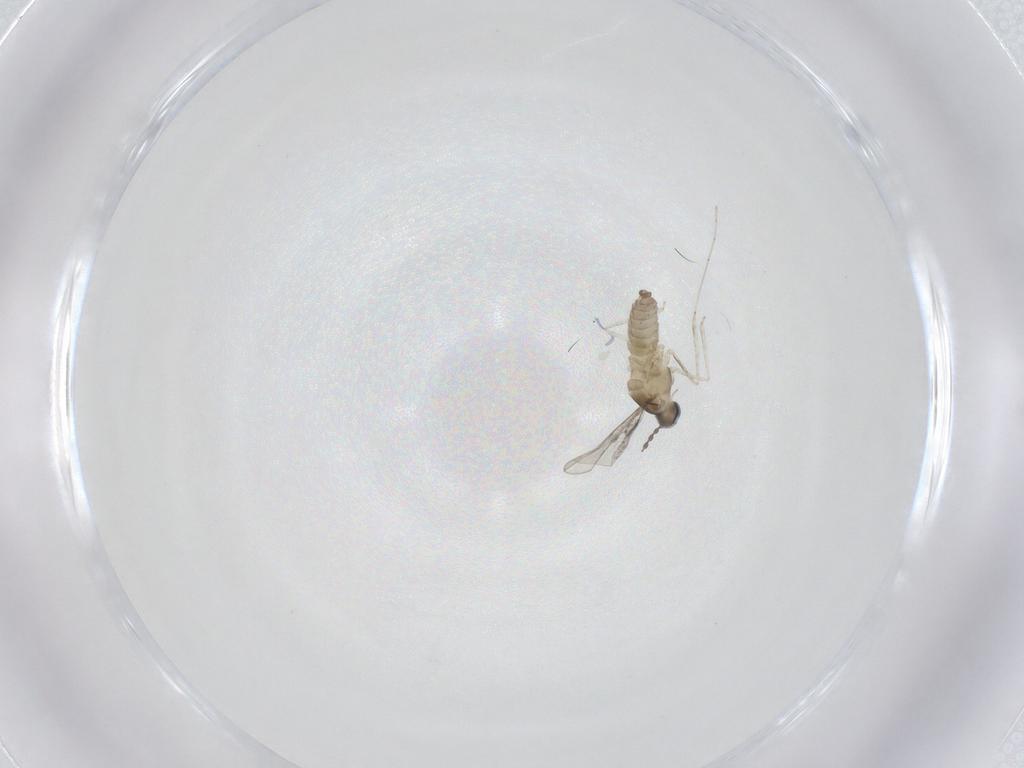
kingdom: Animalia
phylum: Arthropoda
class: Insecta
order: Diptera
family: Cecidomyiidae
